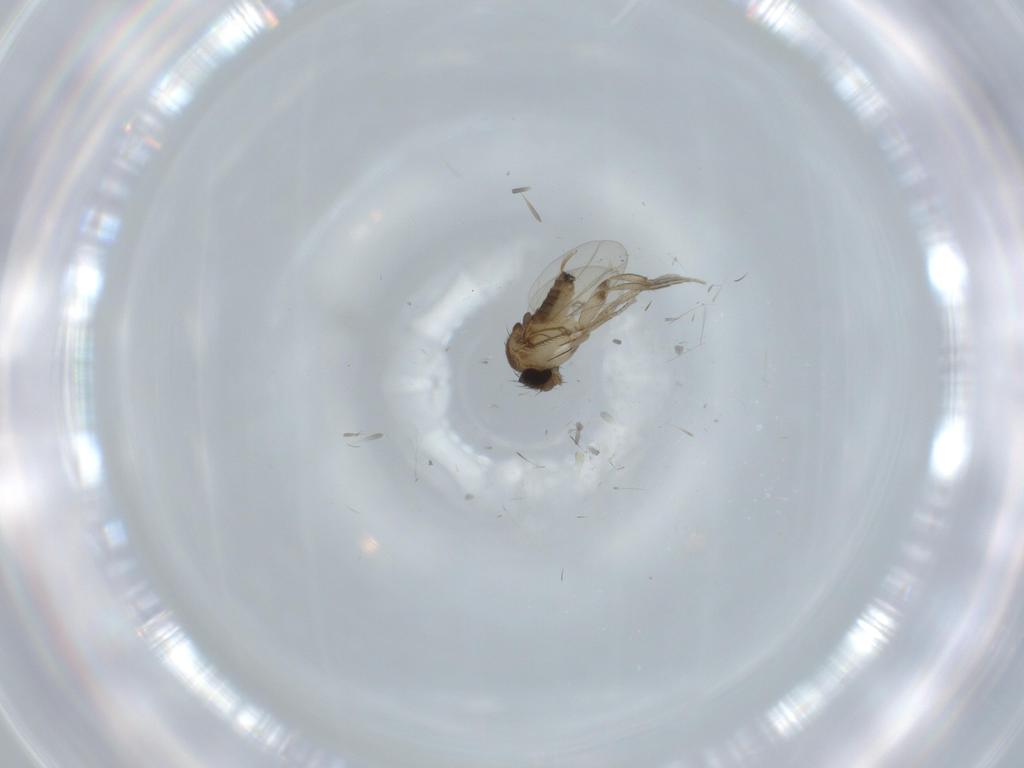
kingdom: Animalia
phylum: Arthropoda
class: Insecta
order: Diptera
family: Phoridae
